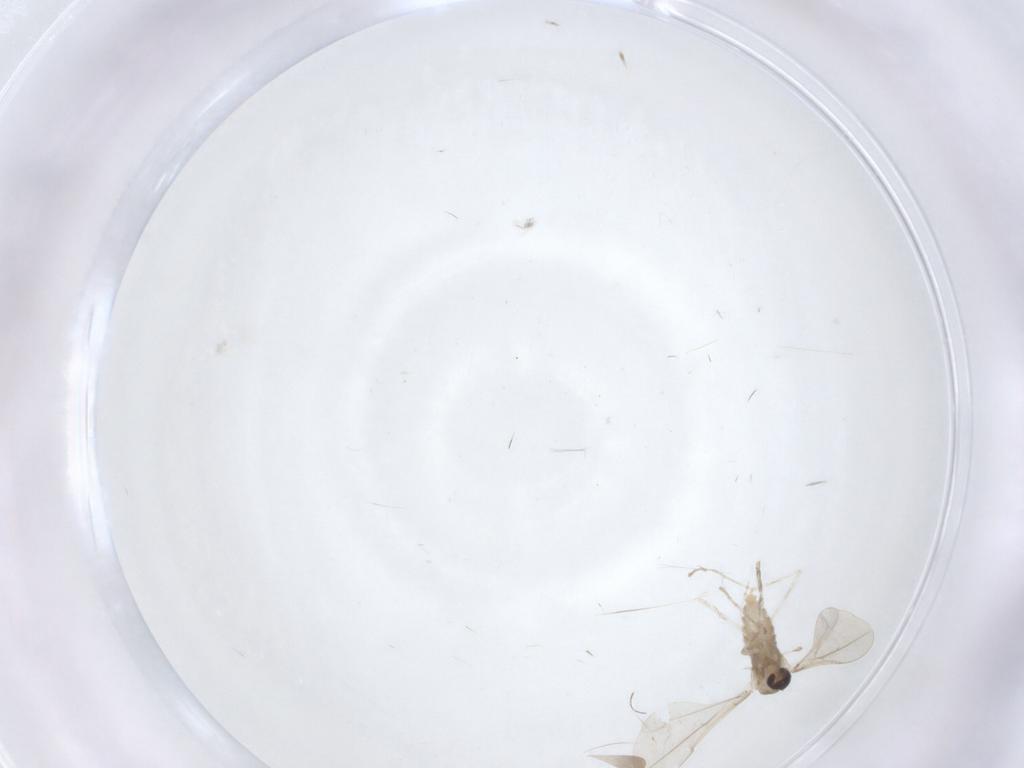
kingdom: Animalia
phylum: Arthropoda
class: Insecta
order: Diptera
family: Cecidomyiidae
